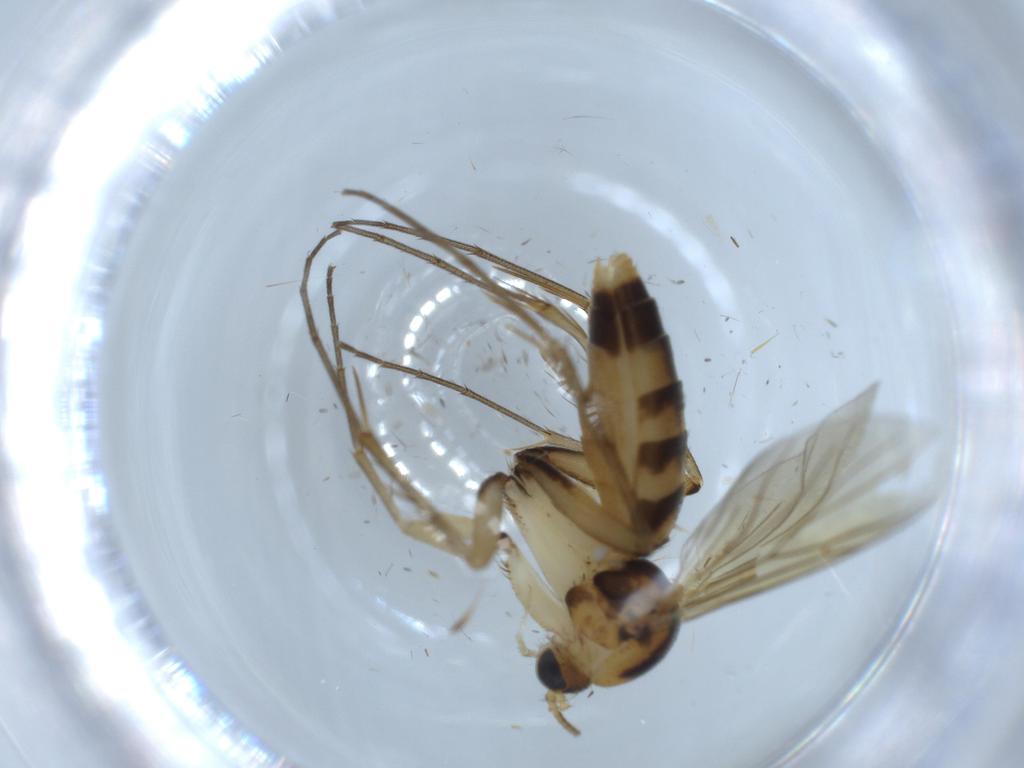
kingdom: Animalia
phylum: Arthropoda
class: Insecta
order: Diptera
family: Mycetophilidae
